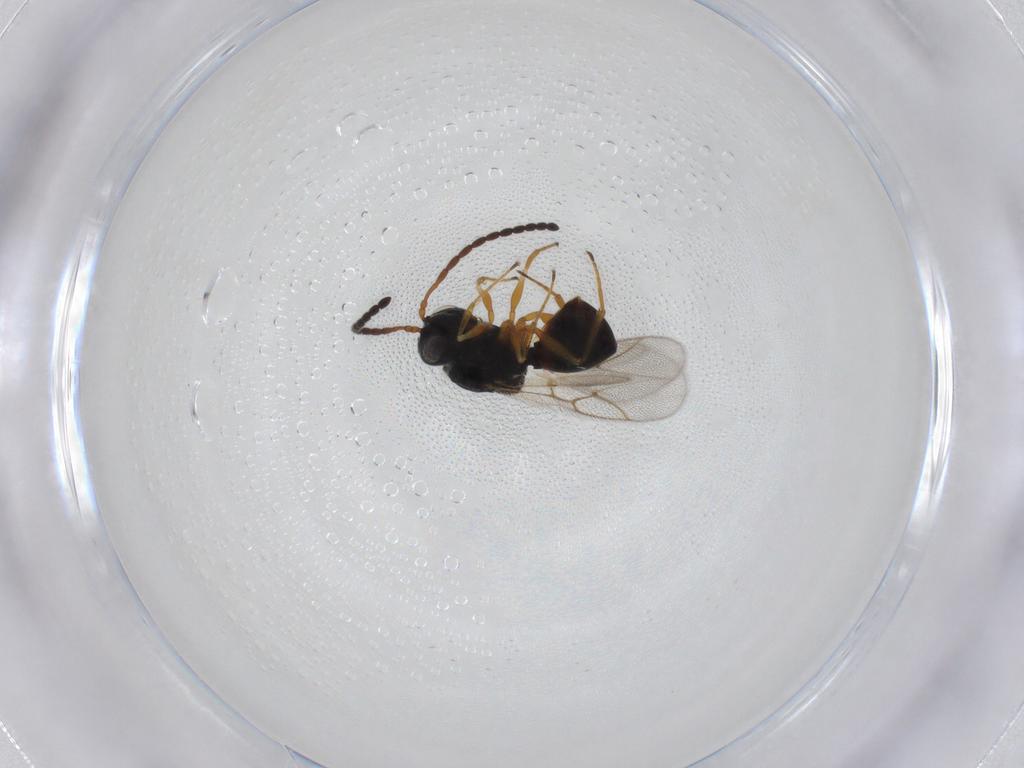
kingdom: Animalia
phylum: Arthropoda
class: Insecta
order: Hymenoptera
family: Figitidae
